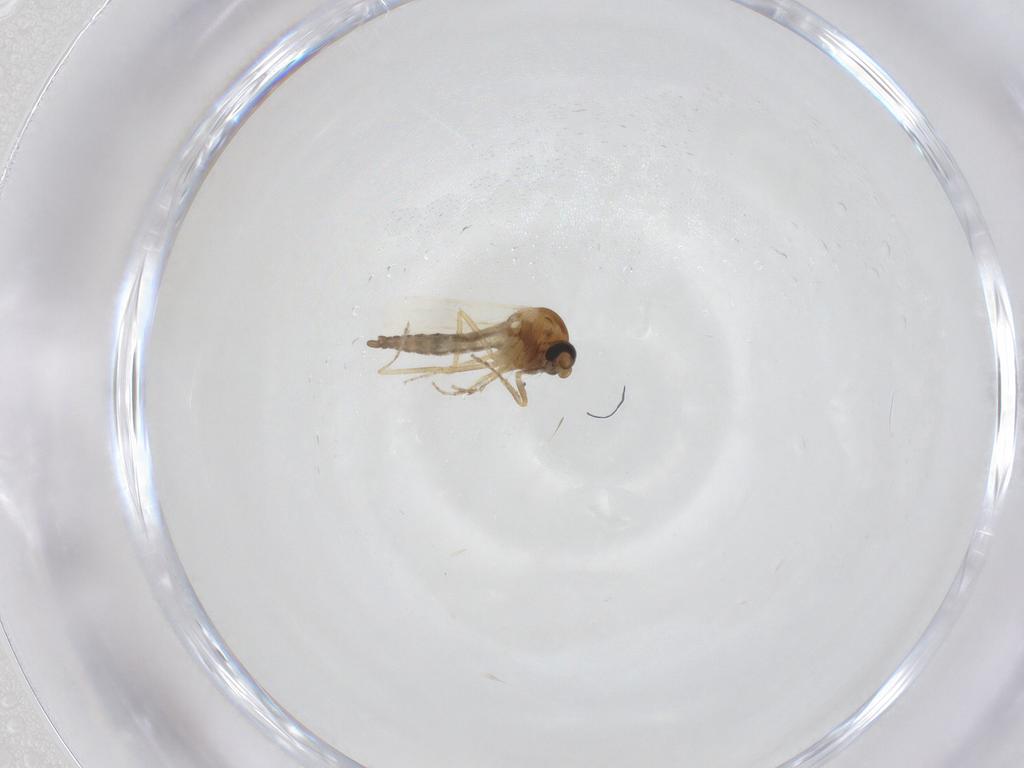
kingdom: Animalia
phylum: Arthropoda
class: Insecta
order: Diptera
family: Ceratopogonidae
